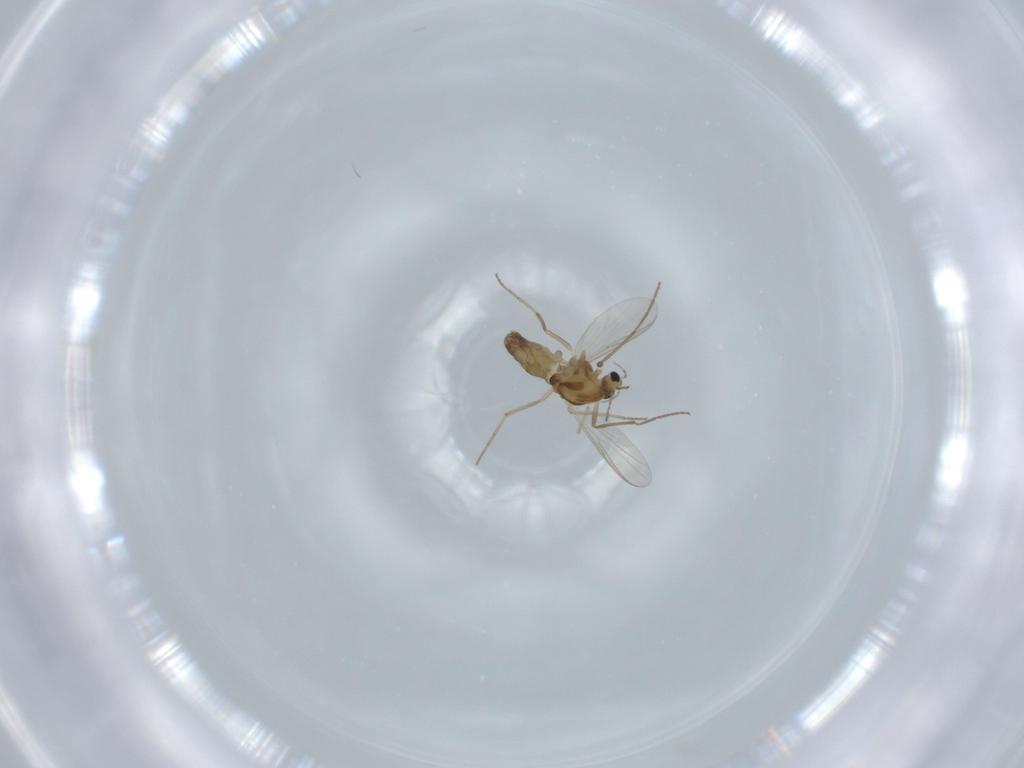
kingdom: Animalia
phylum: Arthropoda
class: Insecta
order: Diptera
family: Chironomidae
